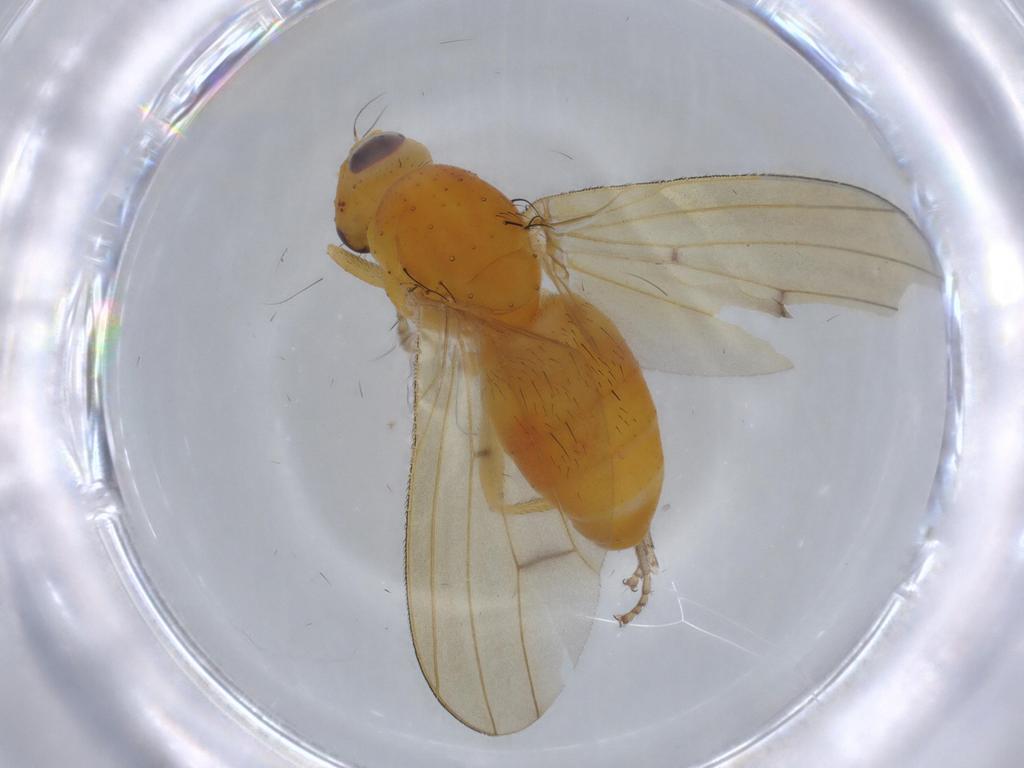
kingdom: Animalia
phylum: Arthropoda
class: Insecta
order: Diptera
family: Lauxaniidae
